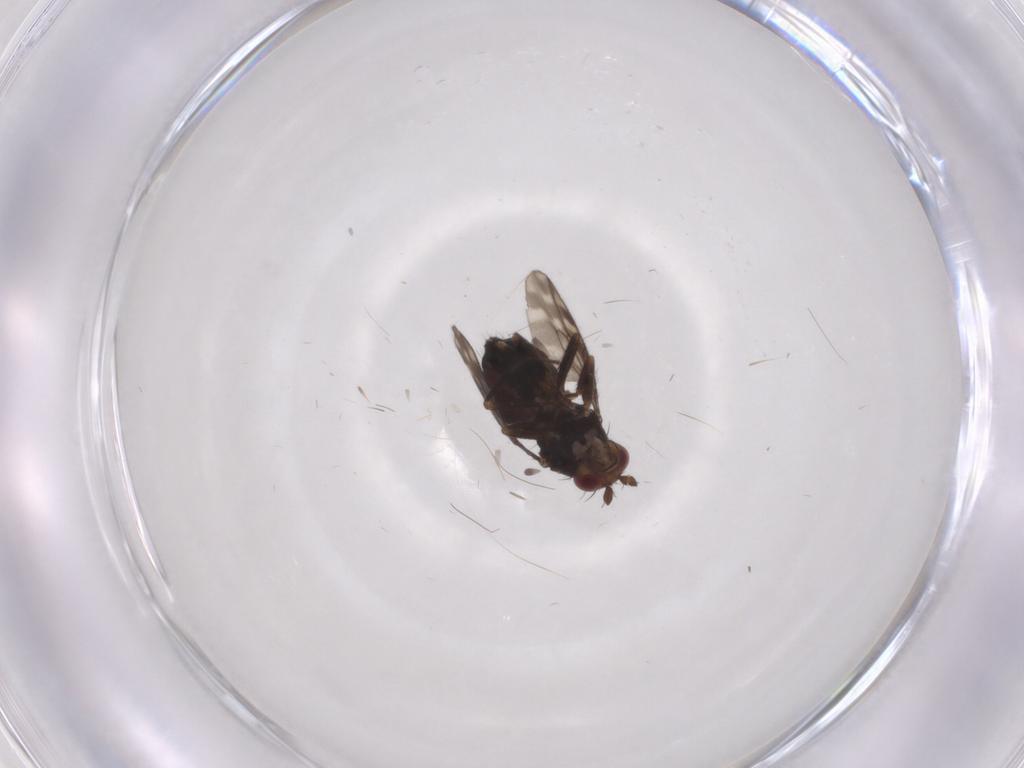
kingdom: Animalia
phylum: Arthropoda
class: Insecta
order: Diptera
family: Sphaeroceridae
